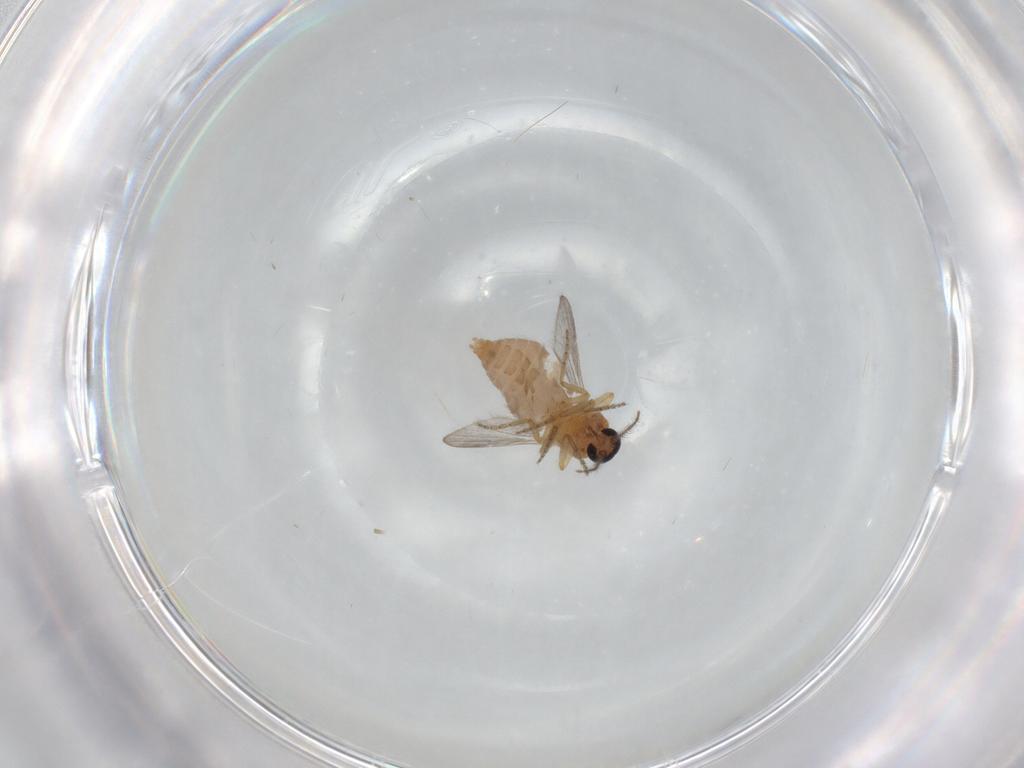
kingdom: Animalia
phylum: Arthropoda
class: Insecta
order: Diptera
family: Ceratopogonidae
